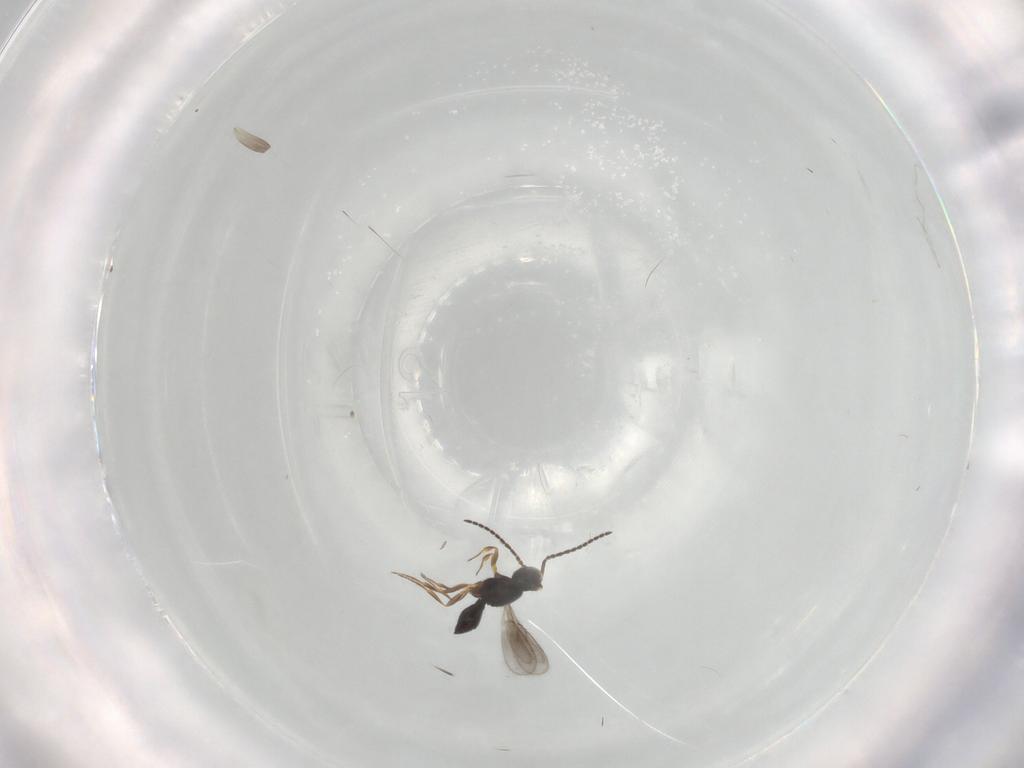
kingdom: Animalia
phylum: Arthropoda
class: Insecta
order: Hymenoptera
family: Scelionidae
